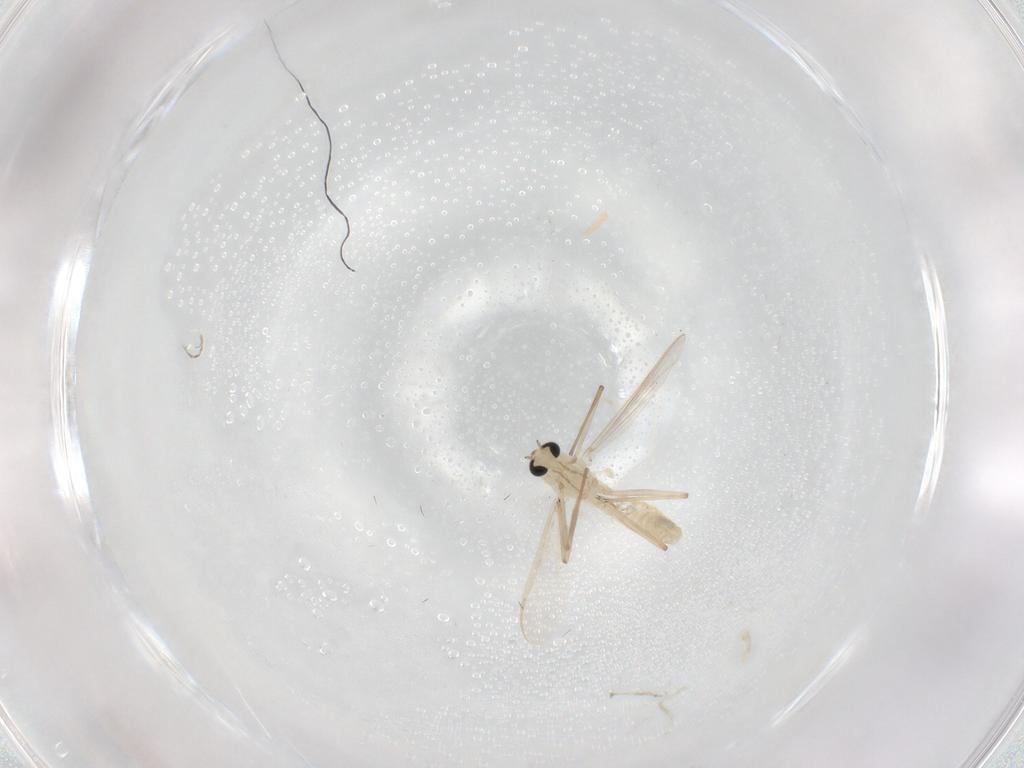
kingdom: Animalia
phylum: Arthropoda
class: Insecta
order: Diptera
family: Chironomidae
